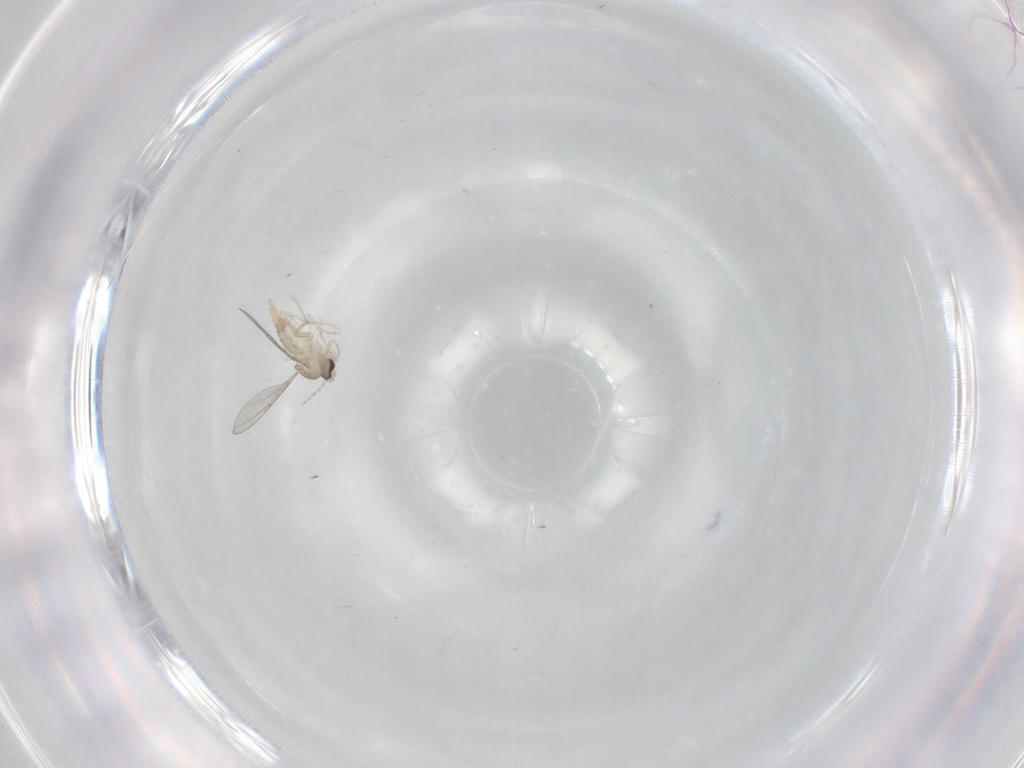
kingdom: Animalia
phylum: Arthropoda
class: Insecta
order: Diptera
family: Cecidomyiidae
